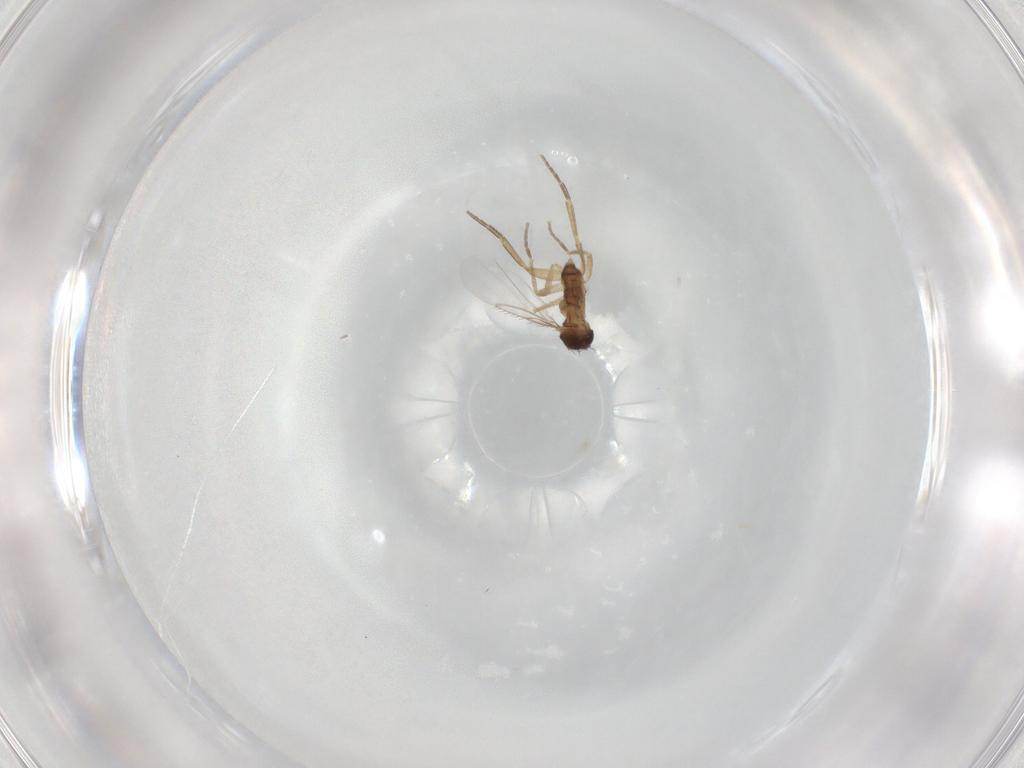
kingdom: Animalia
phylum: Arthropoda
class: Insecta
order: Diptera
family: Phoridae
